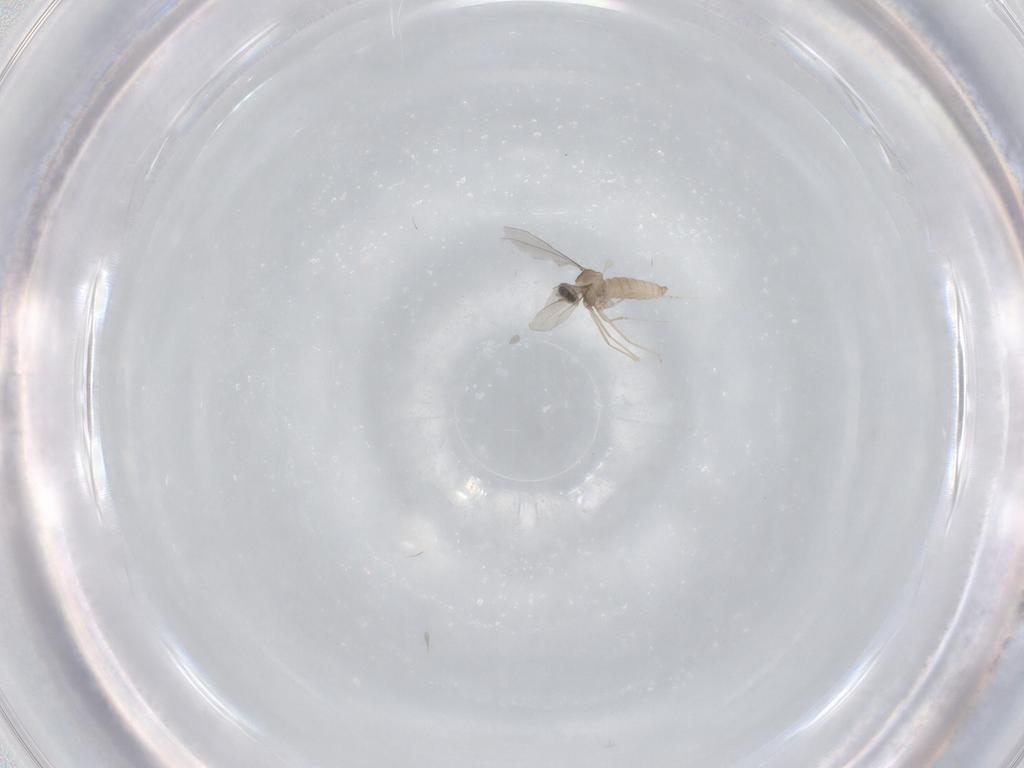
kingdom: Animalia
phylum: Arthropoda
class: Insecta
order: Diptera
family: Cecidomyiidae
